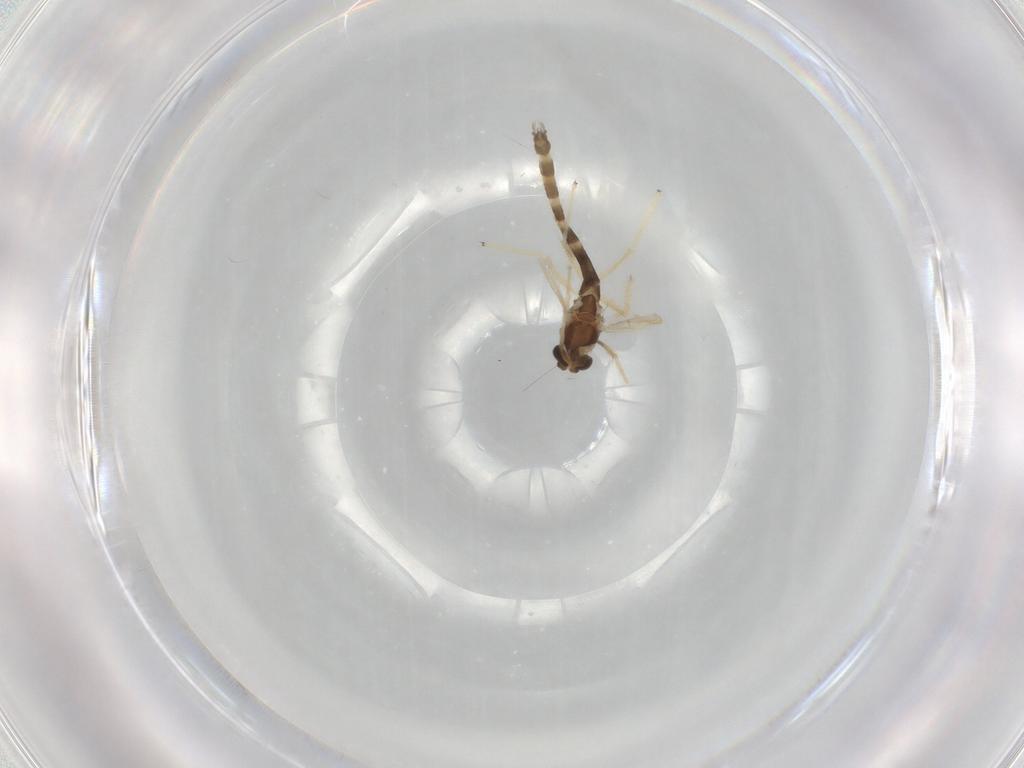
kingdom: Animalia
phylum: Arthropoda
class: Insecta
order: Diptera
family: Chironomidae
